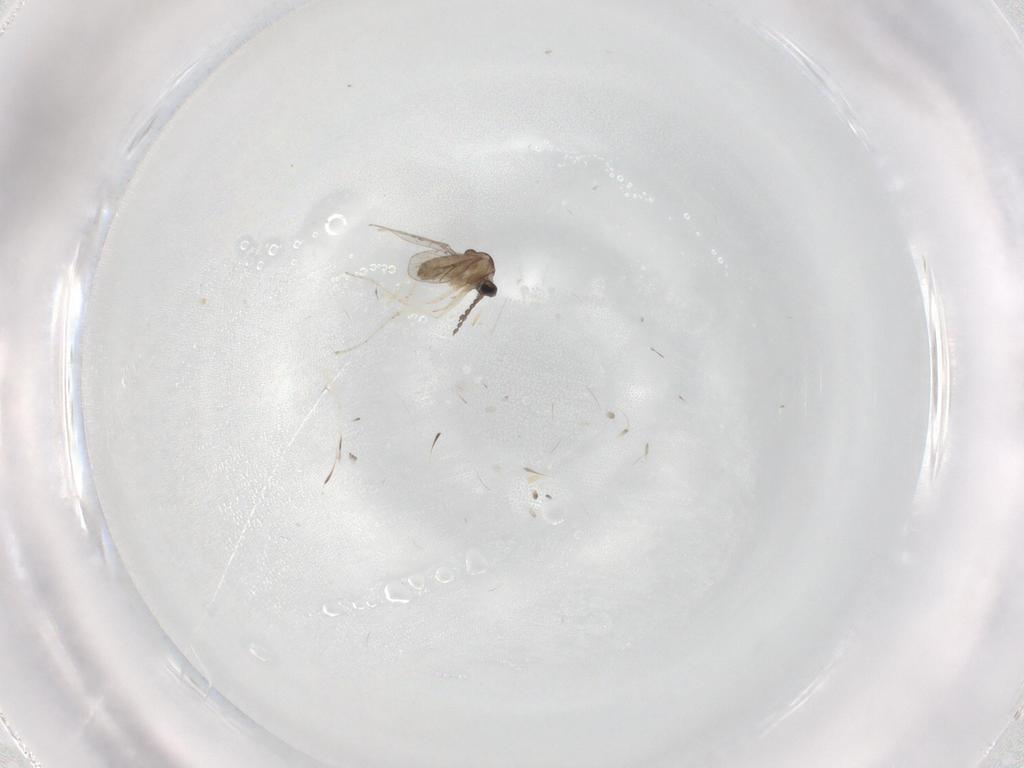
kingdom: Animalia
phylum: Arthropoda
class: Insecta
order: Diptera
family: Cecidomyiidae
